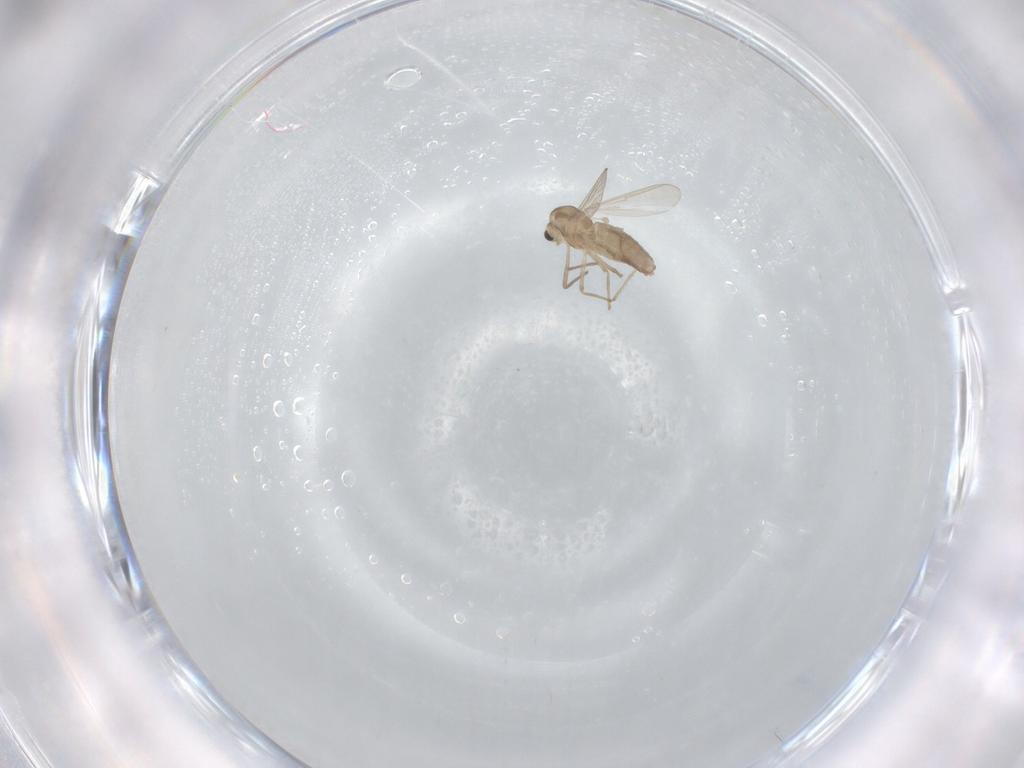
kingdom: Animalia
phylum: Arthropoda
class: Insecta
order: Diptera
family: Chironomidae
